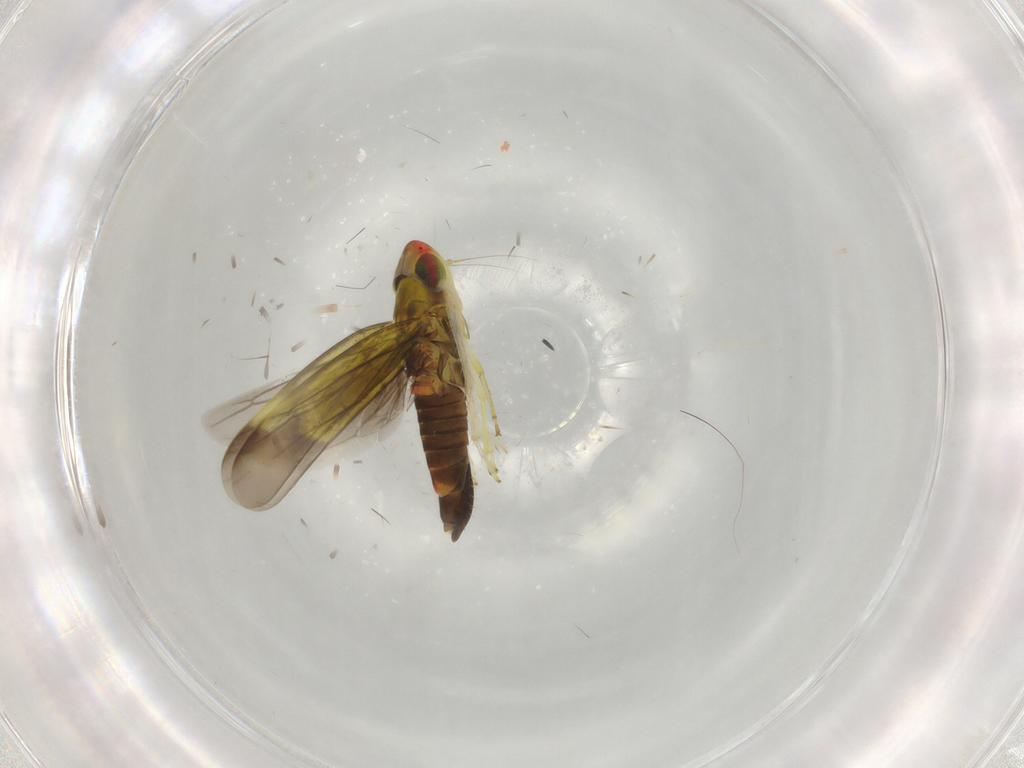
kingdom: Animalia
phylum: Arthropoda
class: Insecta
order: Hemiptera
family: Cicadellidae
